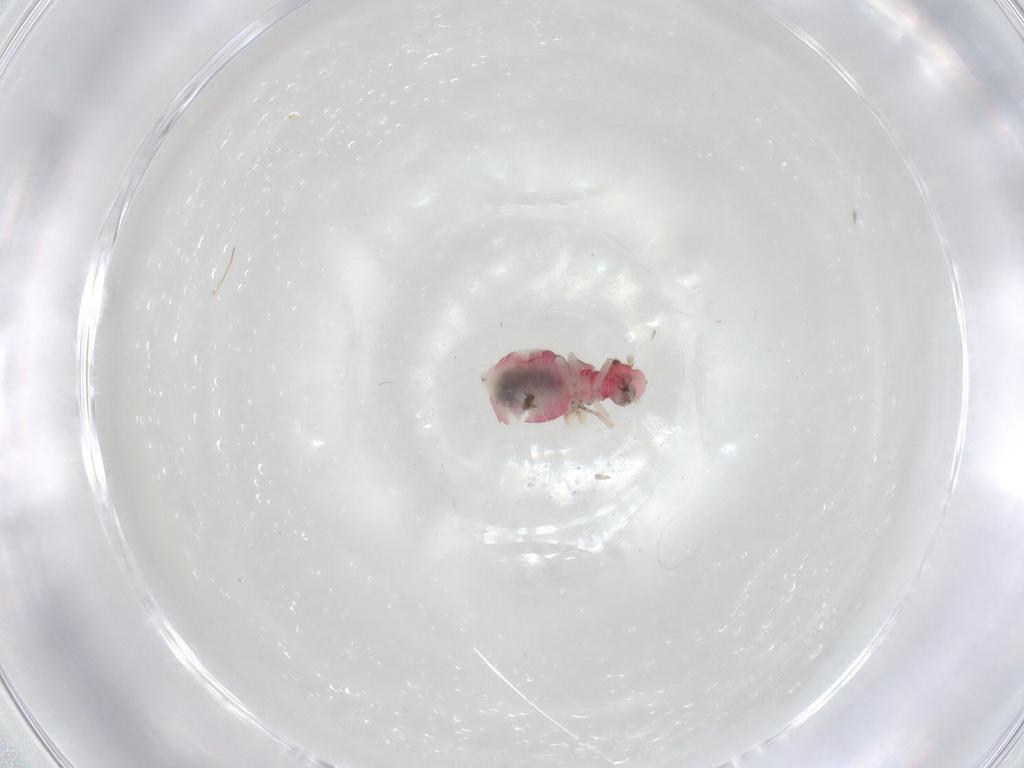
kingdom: Animalia
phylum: Arthropoda
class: Insecta
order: Psocodea
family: Caeciliusidae
